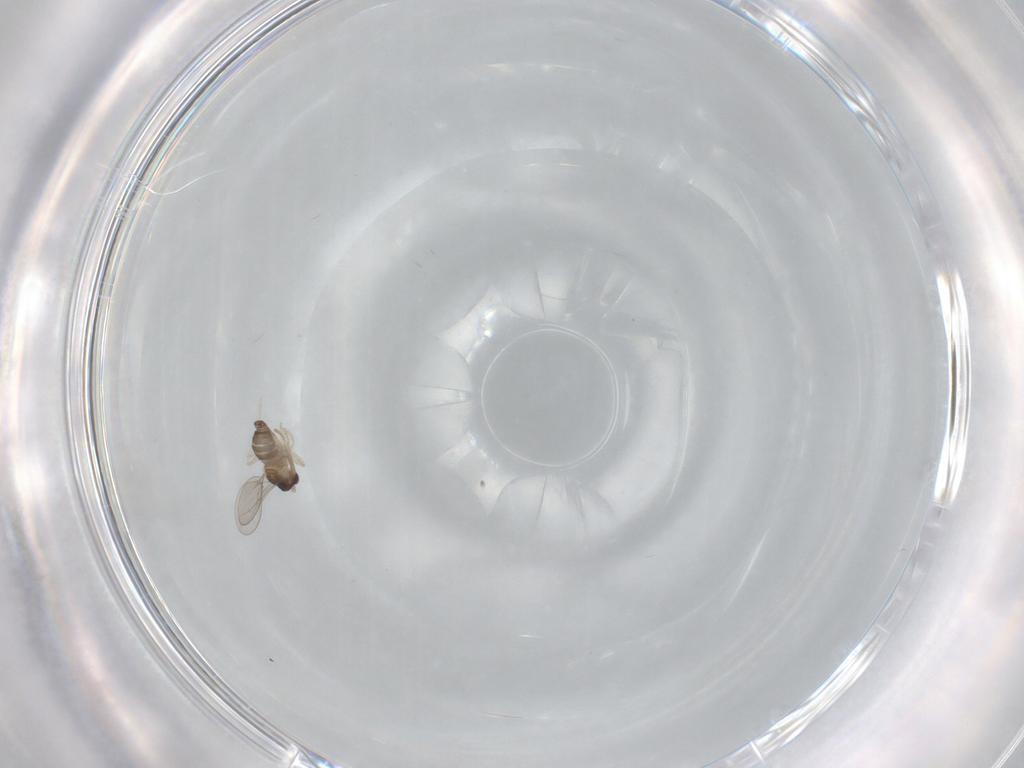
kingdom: Animalia
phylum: Arthropoda
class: Insecta
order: Diptera
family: Cecidomyiidae
